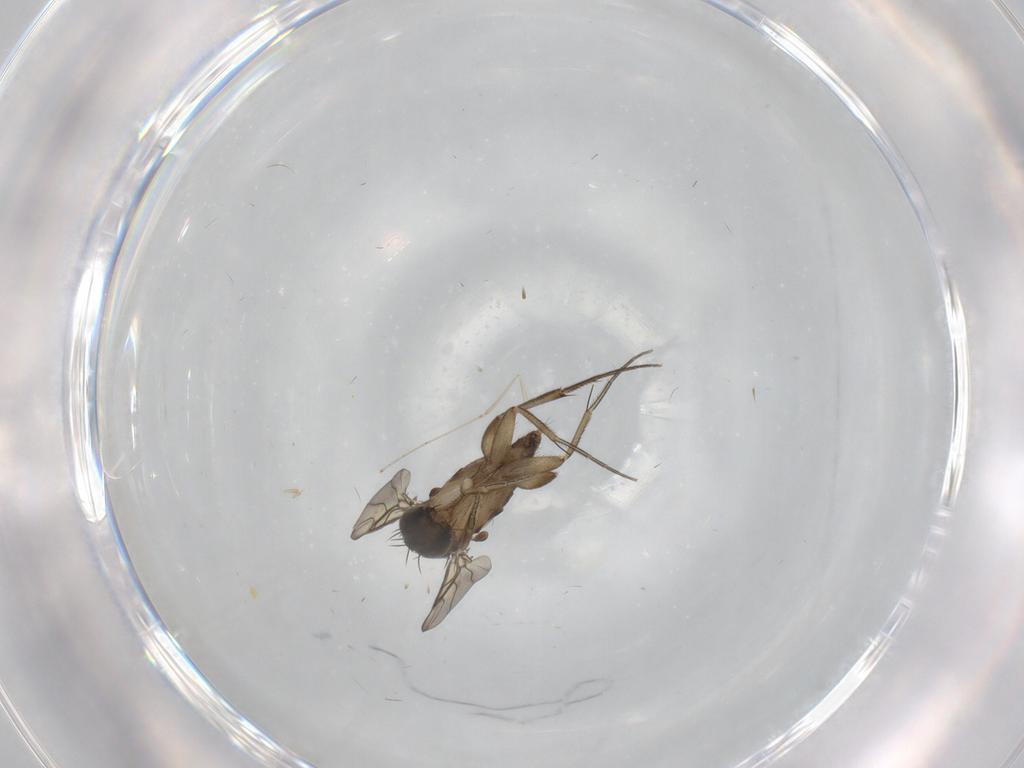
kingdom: Animalia
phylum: Arthropoda
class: Insecta
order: Diptera
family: Phoridae
